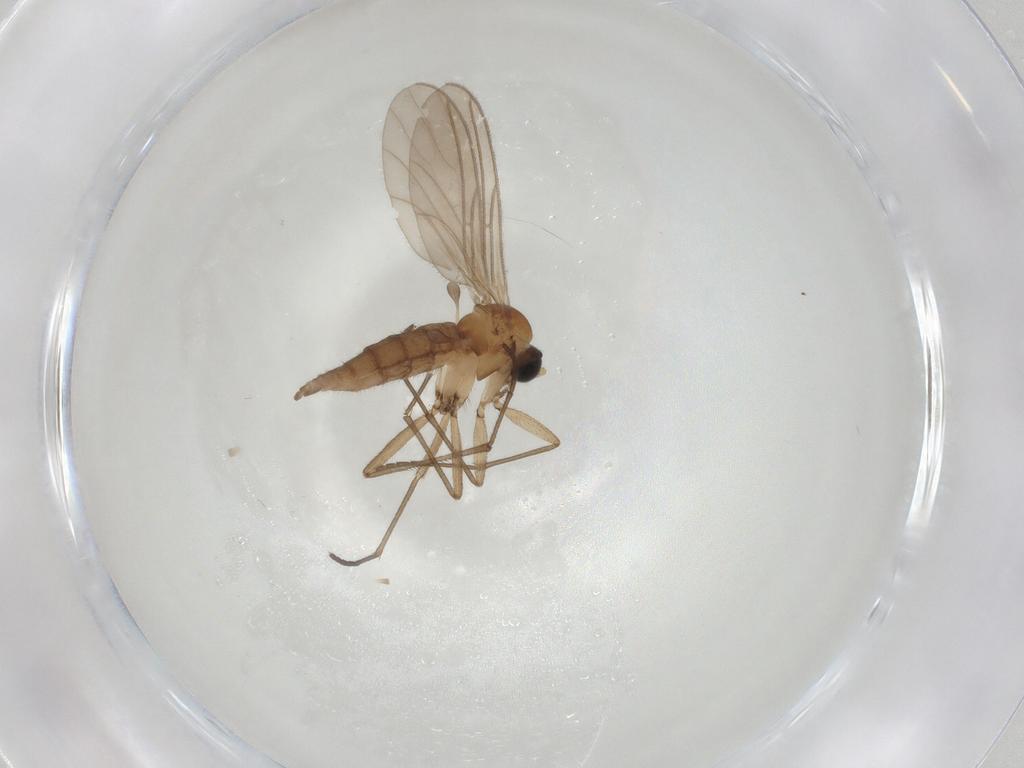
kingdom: Animalia
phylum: Arthropoda
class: Insecta
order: Diptera
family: Sciaridae
